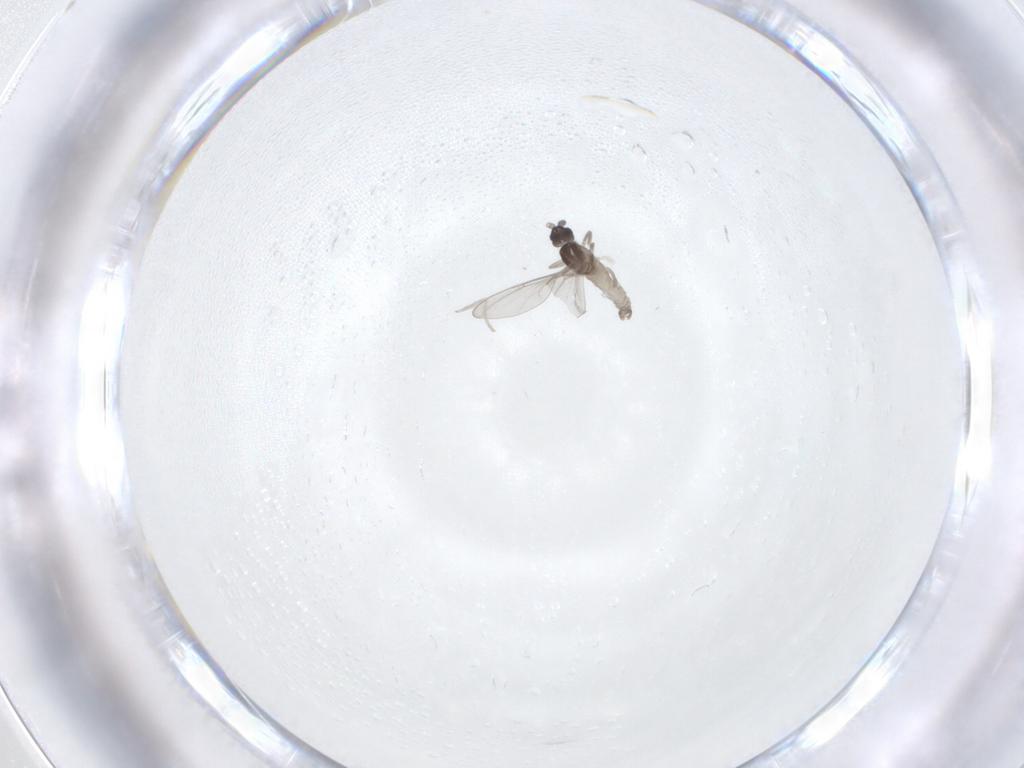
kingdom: Animalia
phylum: Arthropoda
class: Insecta
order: Diptera
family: Cecidomyiidae
